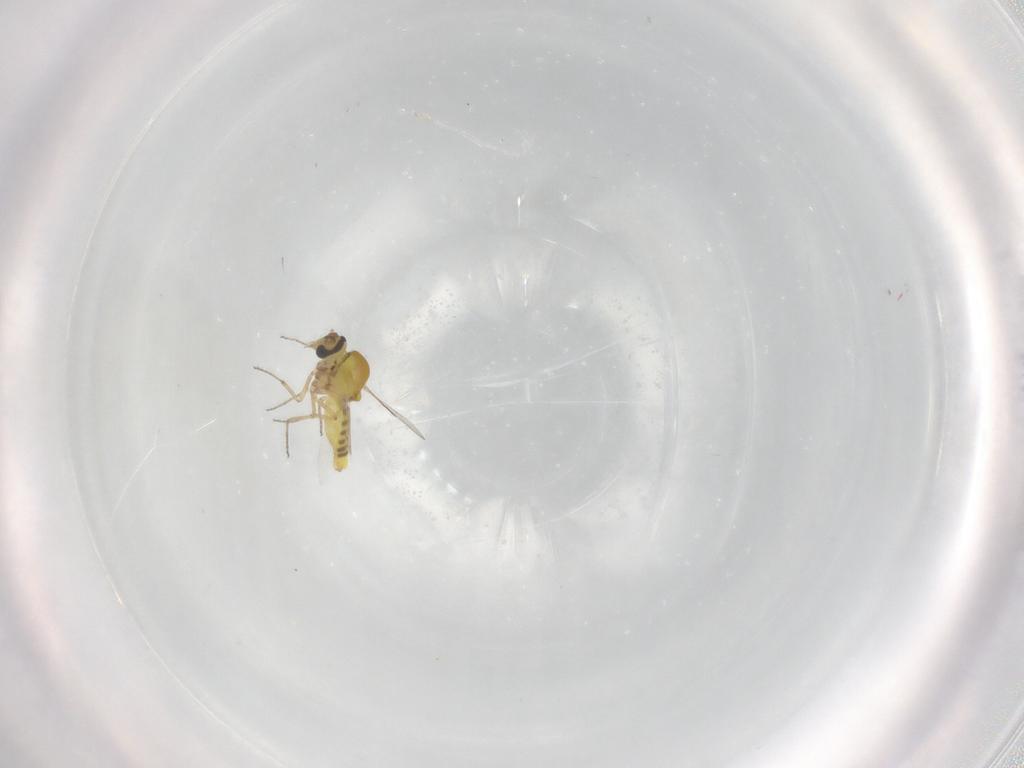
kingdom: Animalia
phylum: Arthropoda
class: Insecta
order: Diptera
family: Ceratopogonidae
